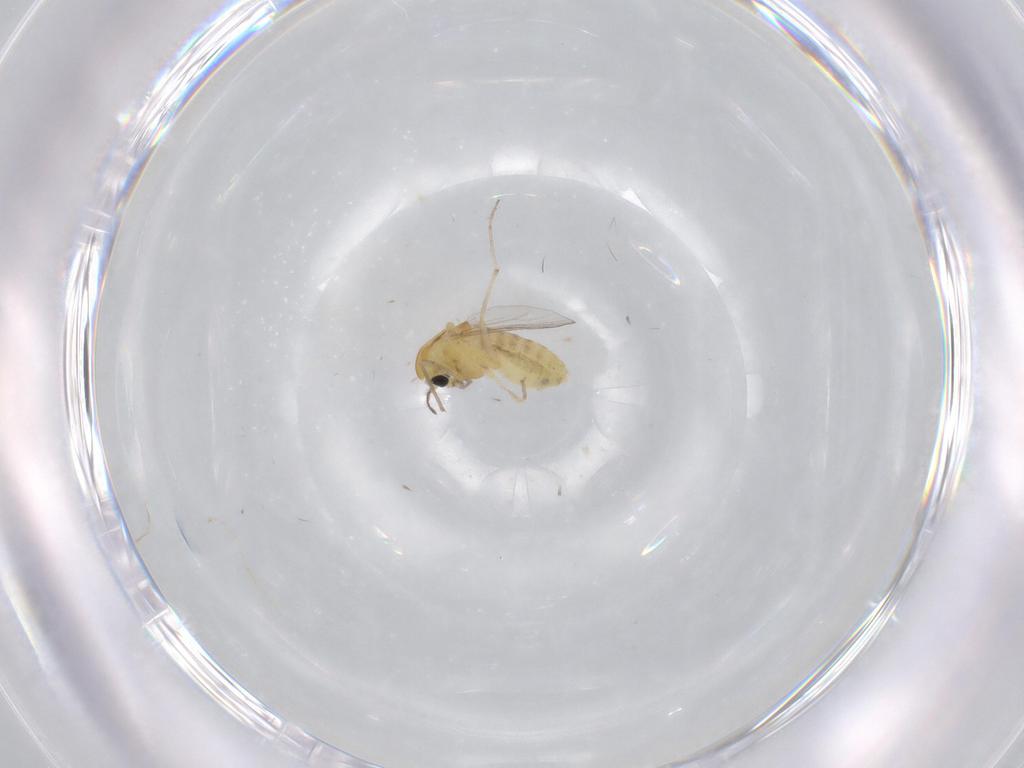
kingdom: Animalia
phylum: Arthropoda
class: Insecta
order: Diptera
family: Chironomidae
